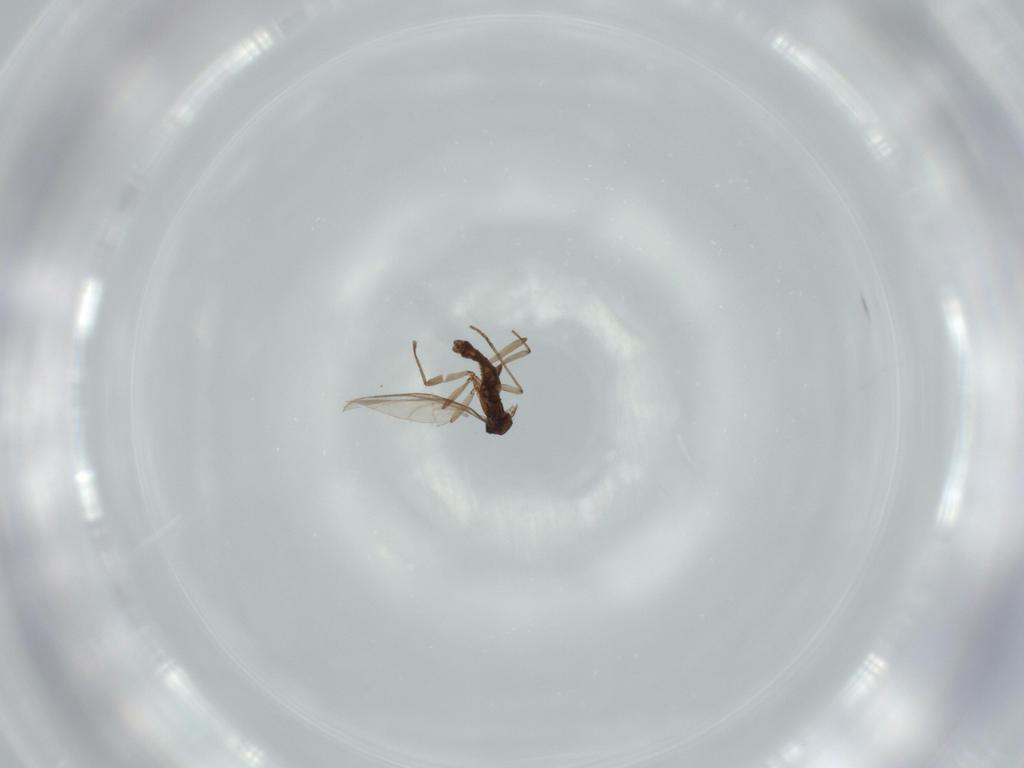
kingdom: Animalia
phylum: Arthropoda
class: Insecta
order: Diptera
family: Sciaridae
